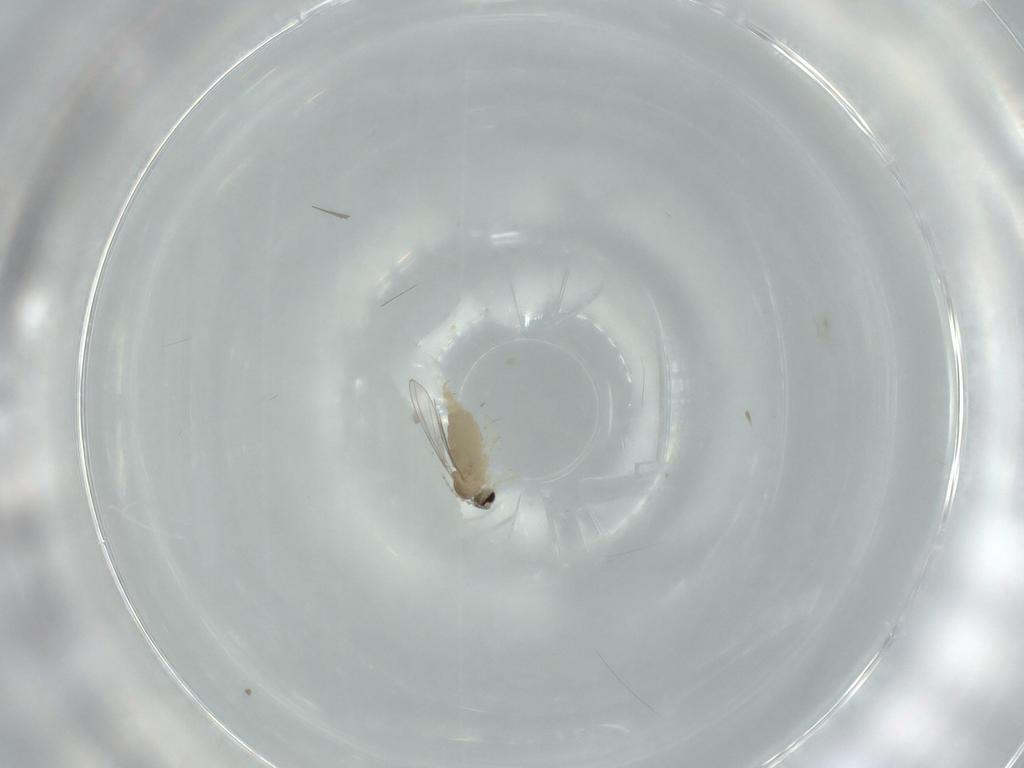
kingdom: Animalia
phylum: Arthropoda
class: Insecta
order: Diptera
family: Cecidomyiidae
